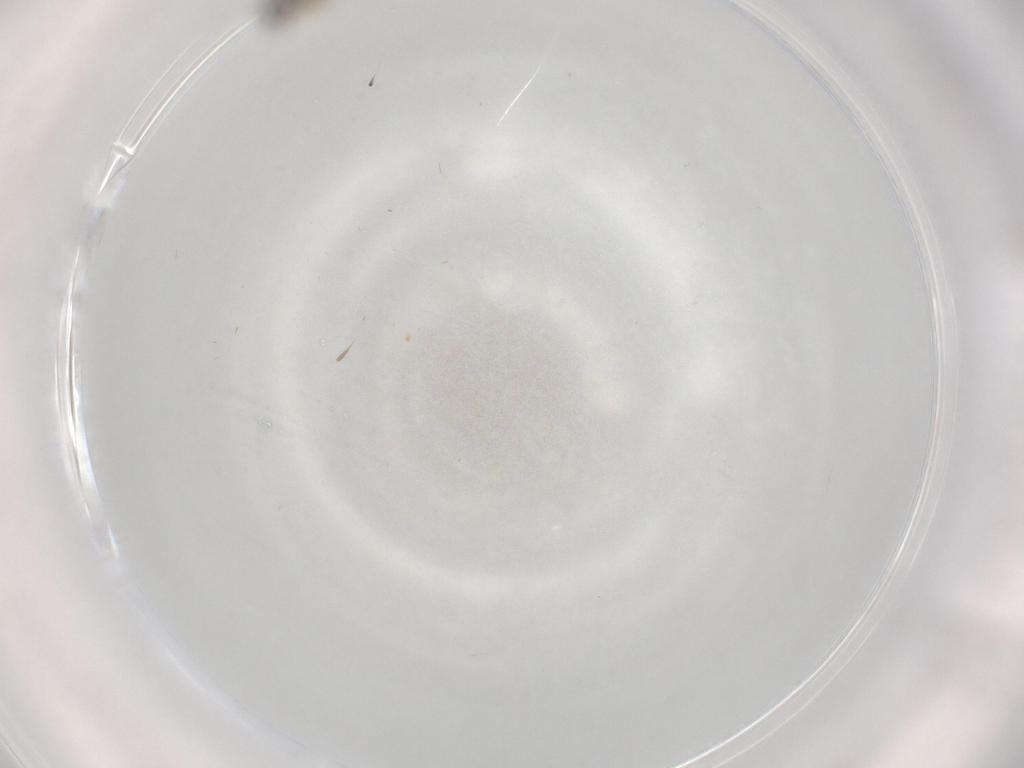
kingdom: Animalia
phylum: Arthropoda
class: Insecta
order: Diptera
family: Cecidomyiidae
